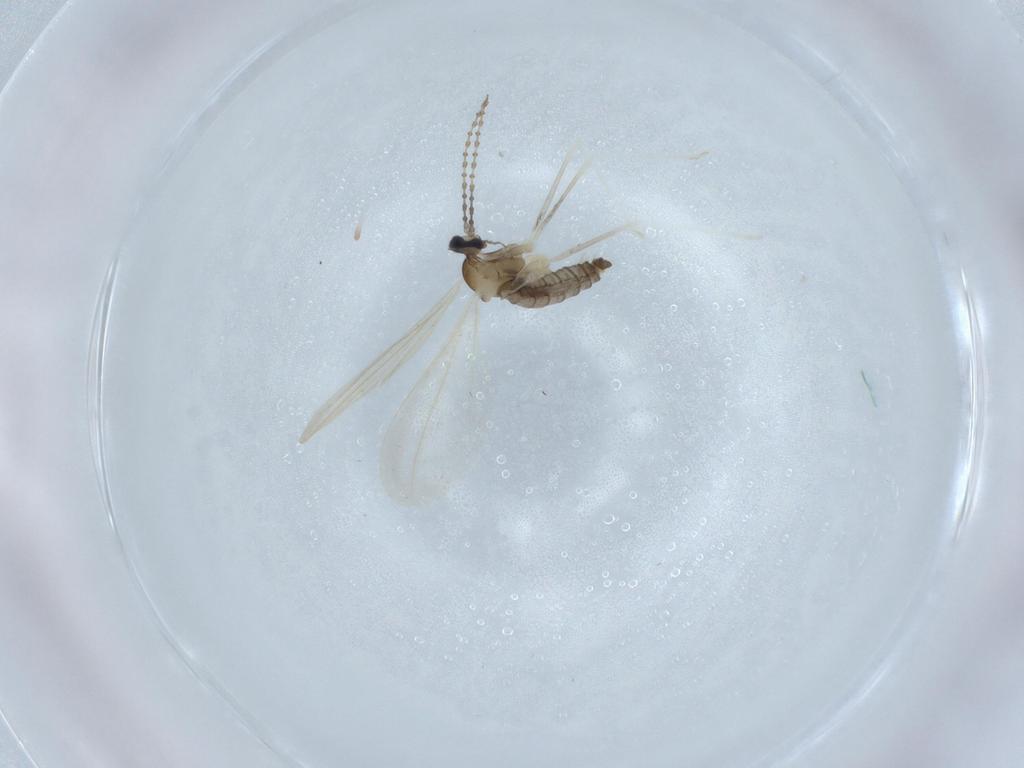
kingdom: Animalia
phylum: Arthropoda
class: Insecta
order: Diptera
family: Cecidomyiidae
